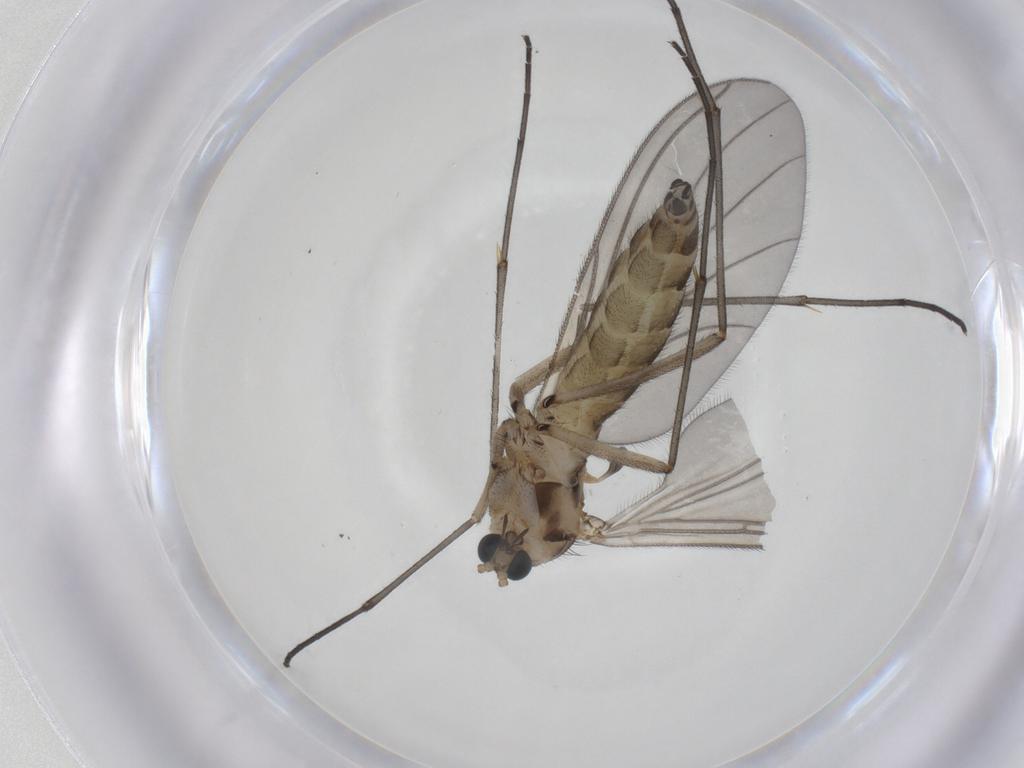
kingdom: Animalia
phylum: Arthropoda
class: Insecta
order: Diptera
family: Sciaridae
